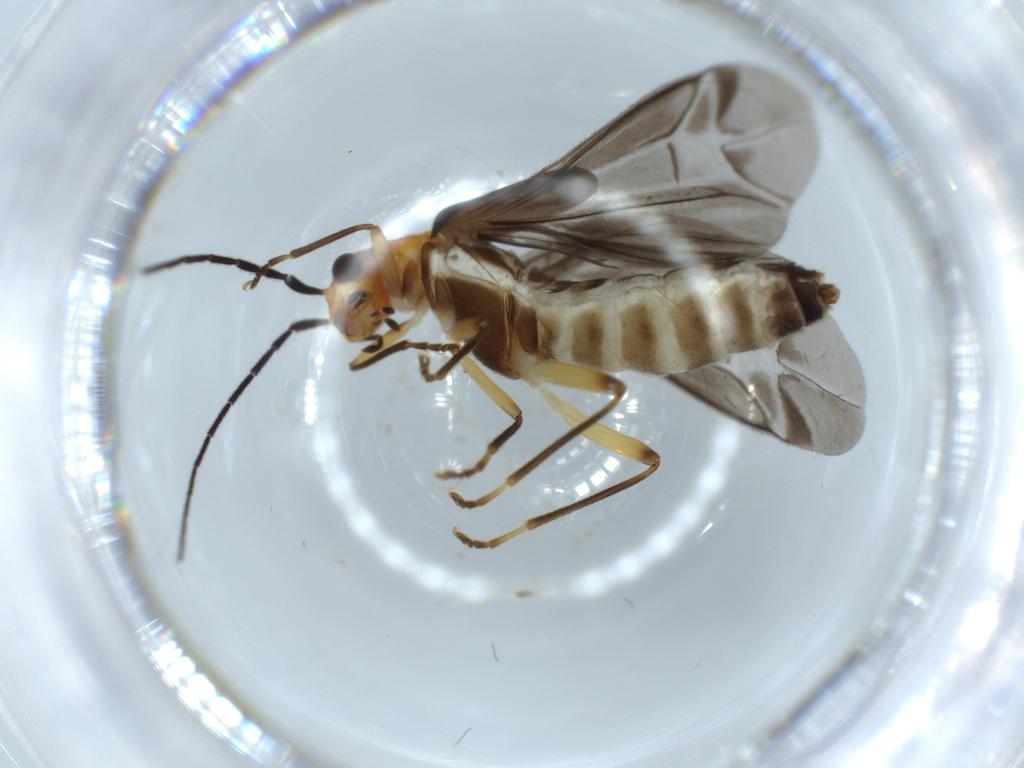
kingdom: Animalia
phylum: Arthropoda
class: Insecta
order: Coleoptera
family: Cantharidae
